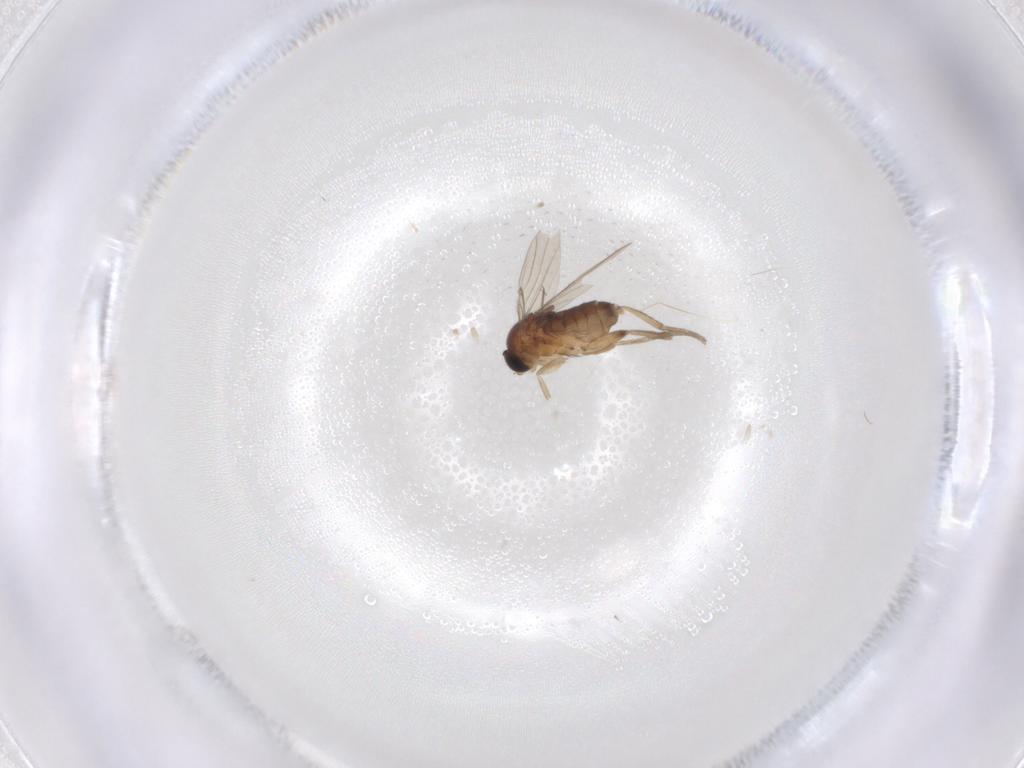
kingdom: Animalia
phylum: Arthropoda
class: Insecta
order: Diptera
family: Phoridae
